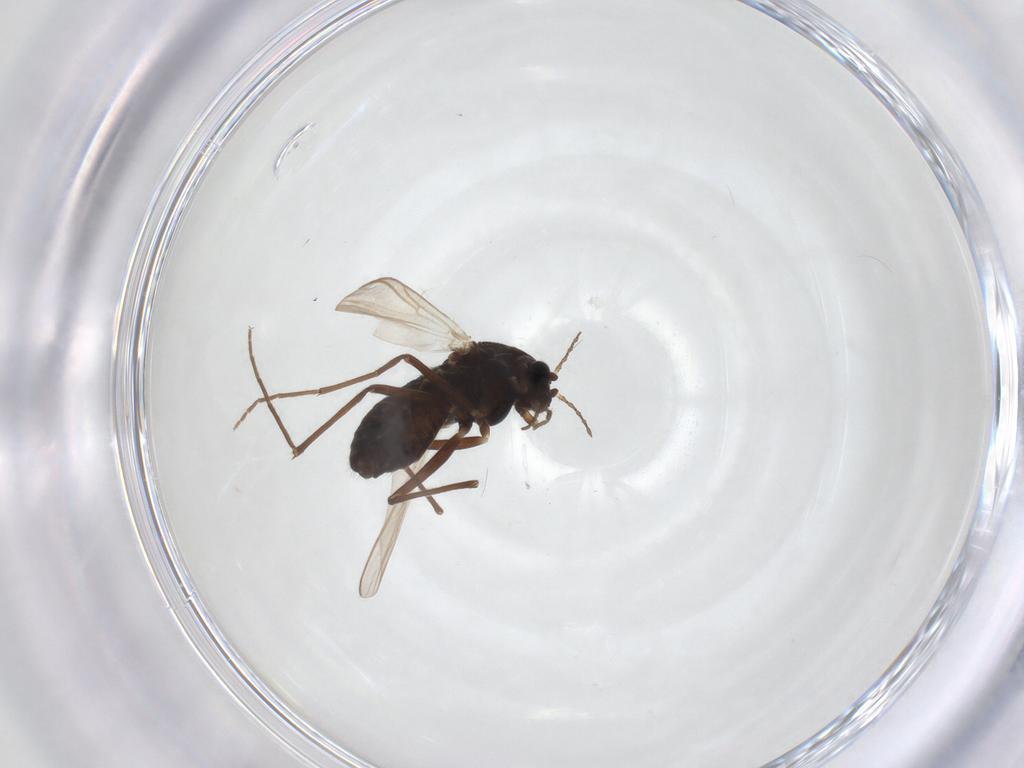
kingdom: Animalia
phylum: Arthropoda
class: Insecta
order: Diptera
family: Chironomidae
